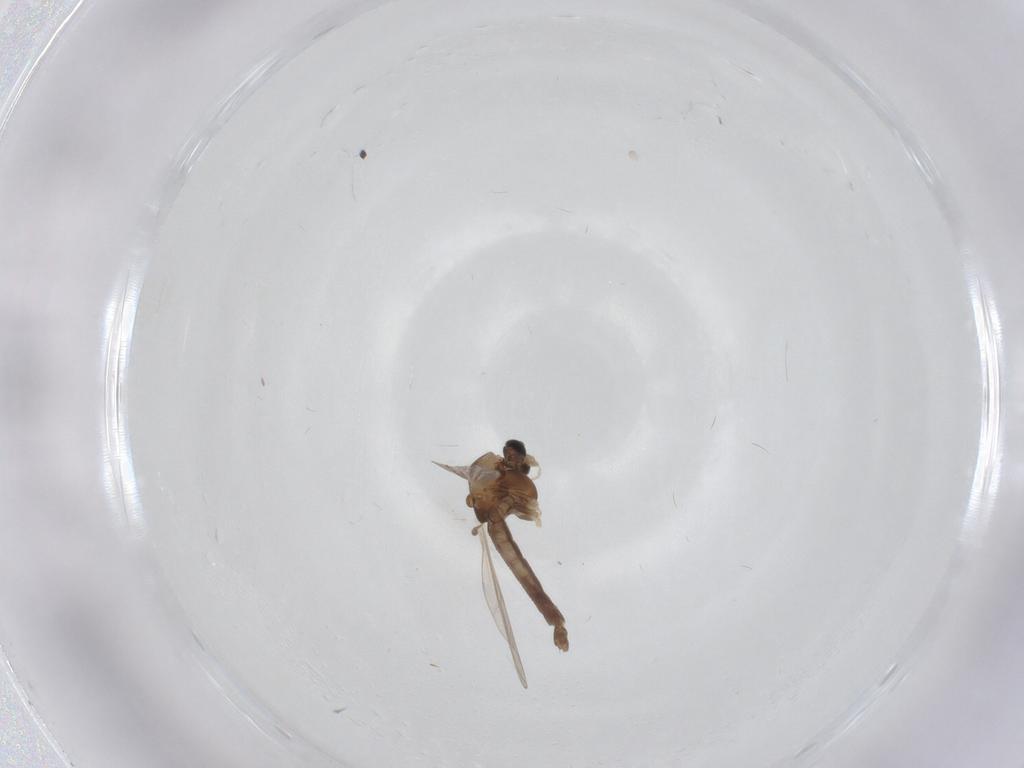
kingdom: Animalia
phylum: Arthropoda
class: Insecta
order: Diptera
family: Chironomidae
